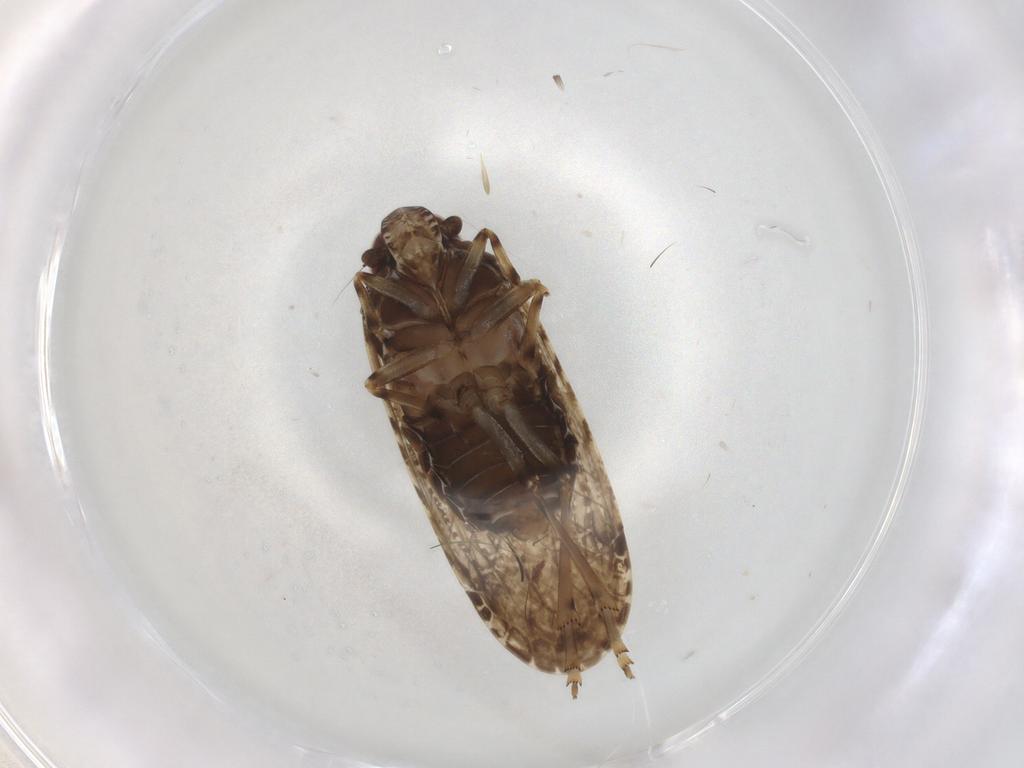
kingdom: Animalia
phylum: Arthropoda
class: Insecta
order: Hemiptera
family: Cicadellidae
